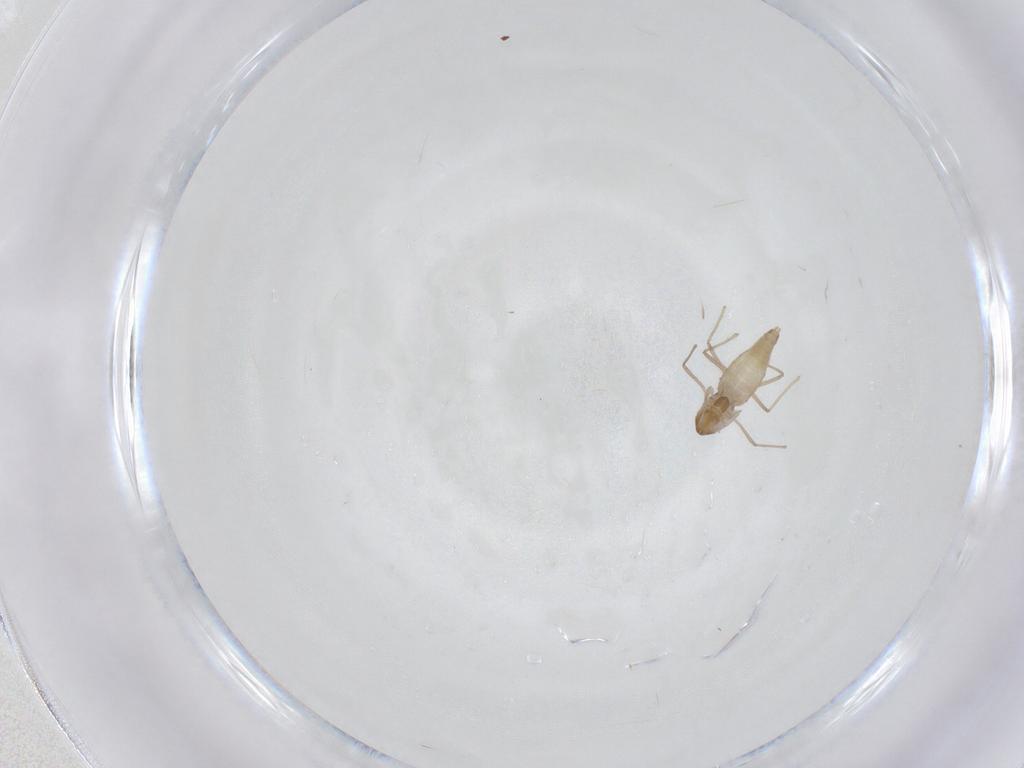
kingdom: Animalia
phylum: Arthropoda
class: Insecta
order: Diptera
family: Chironomidae
